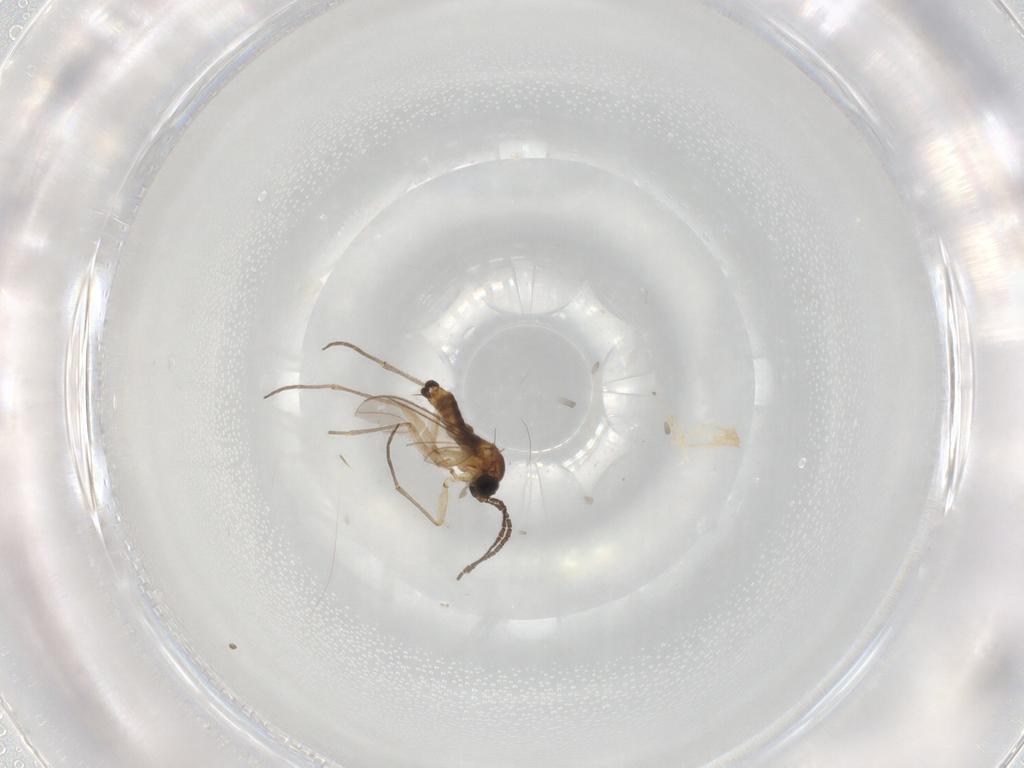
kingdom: Animalia
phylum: Arthropoda
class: Insecta
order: Diptera
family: Sciaridae
